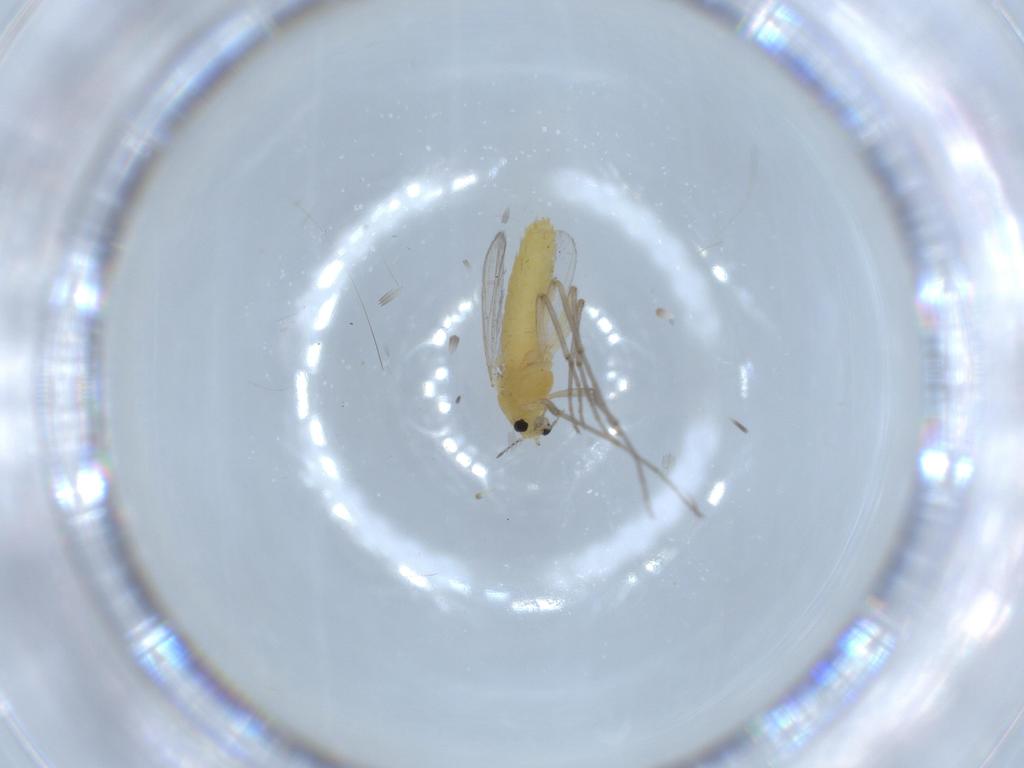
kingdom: Animalia
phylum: Arthropoda
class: Insecta
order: Diptera
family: Chironomidae
